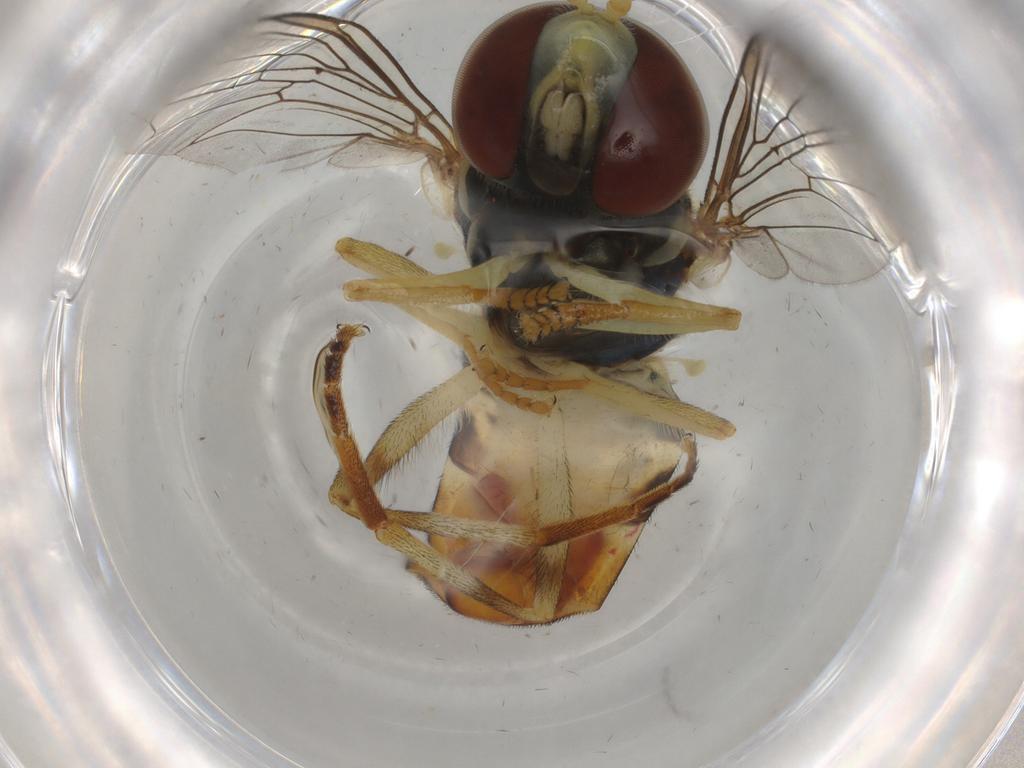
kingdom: Animalia
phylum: Arthropoda
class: Insecta
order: Diptera
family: Syrphidae
